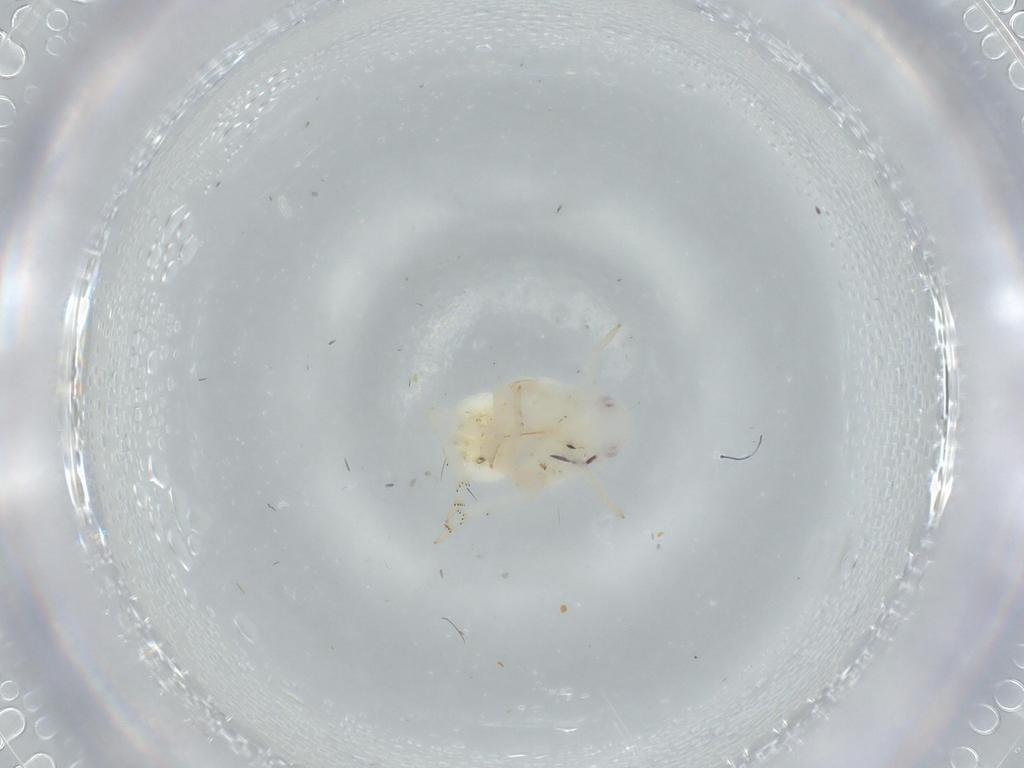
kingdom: Animalia
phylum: Arthropoda
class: Insecta
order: Hemiptera
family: Flatidae
